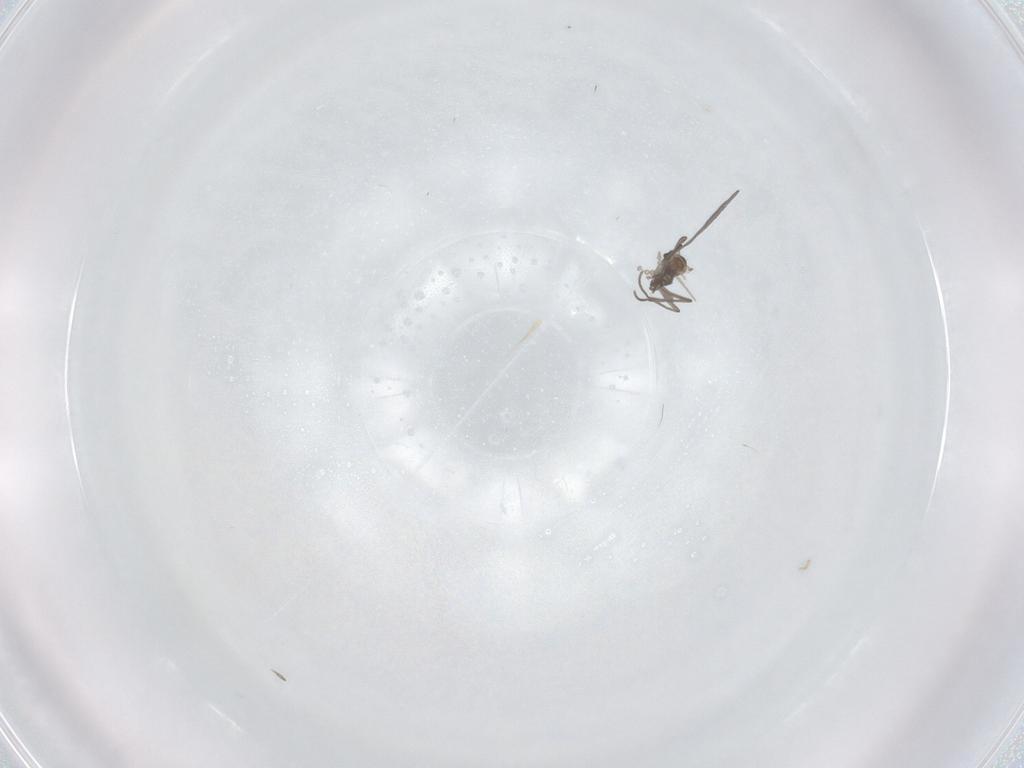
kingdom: Animalia
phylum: Arthropoda
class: Insecta
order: Diptera
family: Sciaridae
